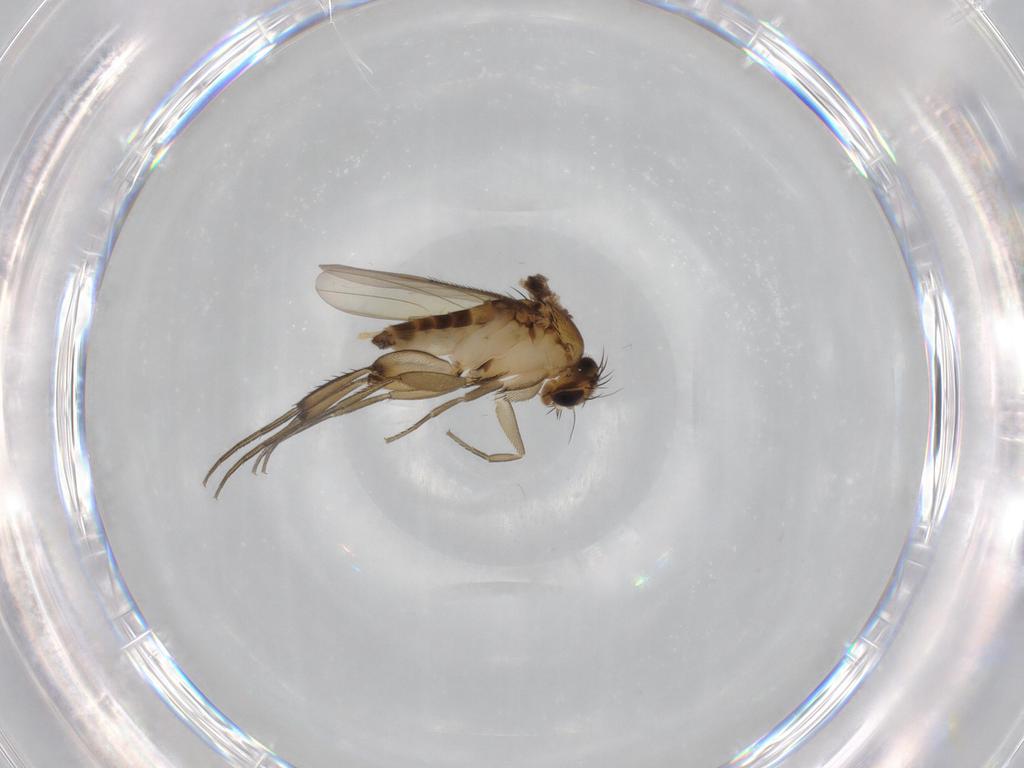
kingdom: Animalia
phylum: Arthropoda
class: Insecta
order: Diptera
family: Phoridae
